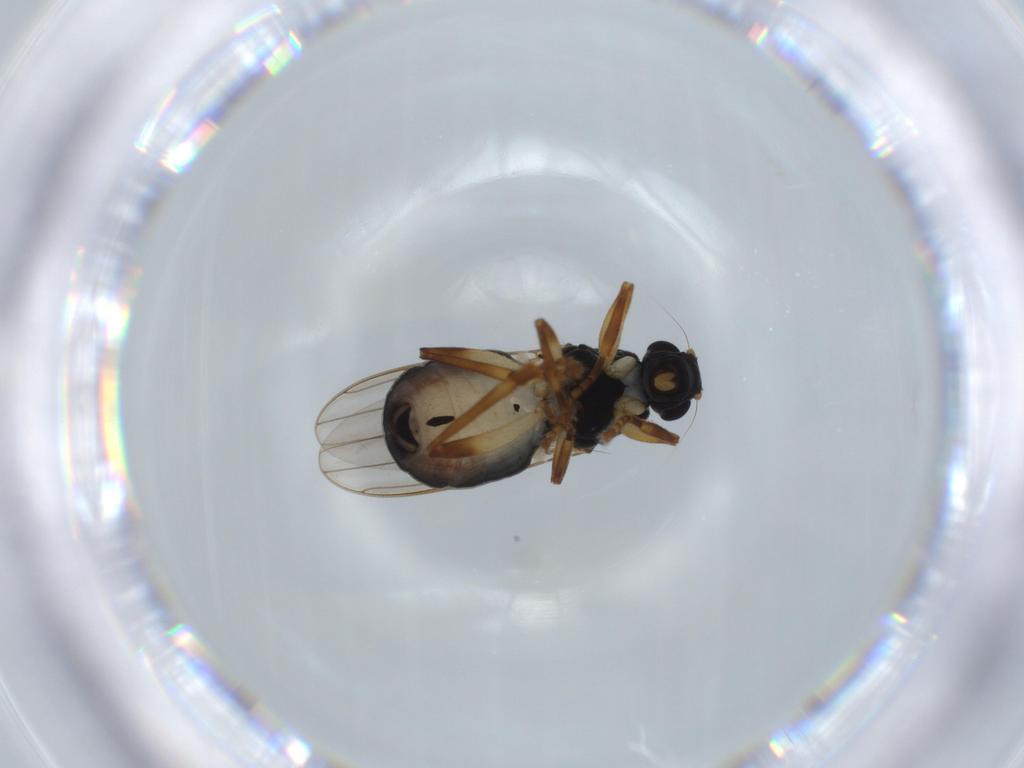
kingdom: Animalia
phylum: Arthropoda
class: Insecta
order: Diptera
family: Sphaeroceridae
